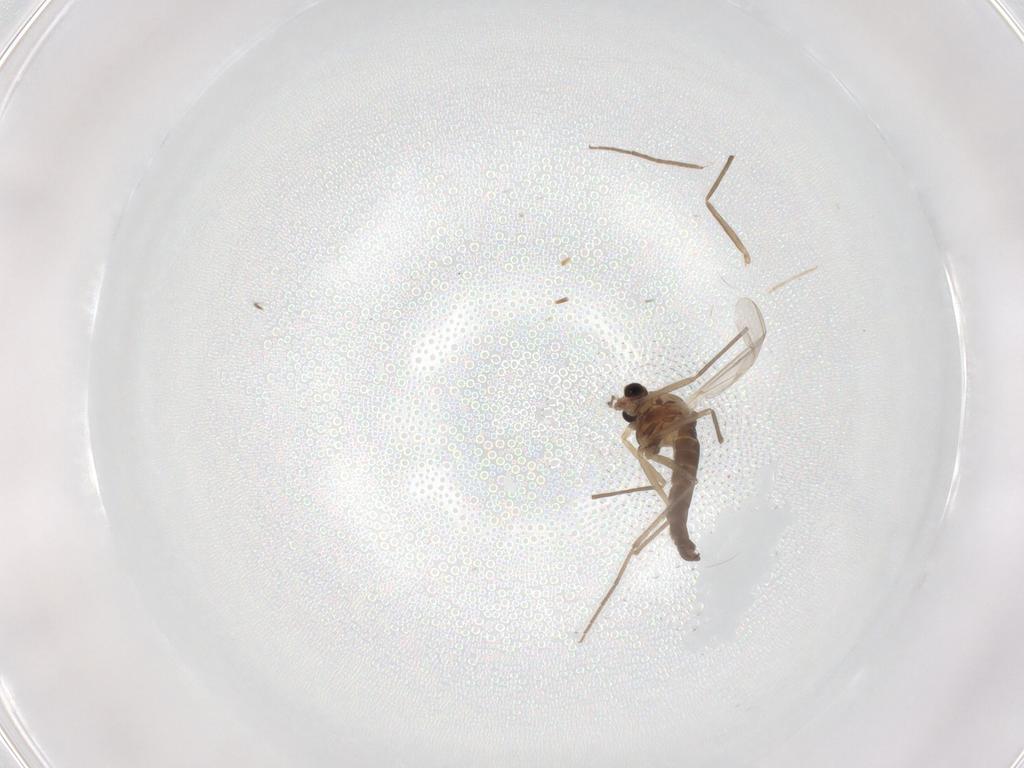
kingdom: Animalia
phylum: Arthropoda
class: Insecta
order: Diptera
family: Chironomidae
